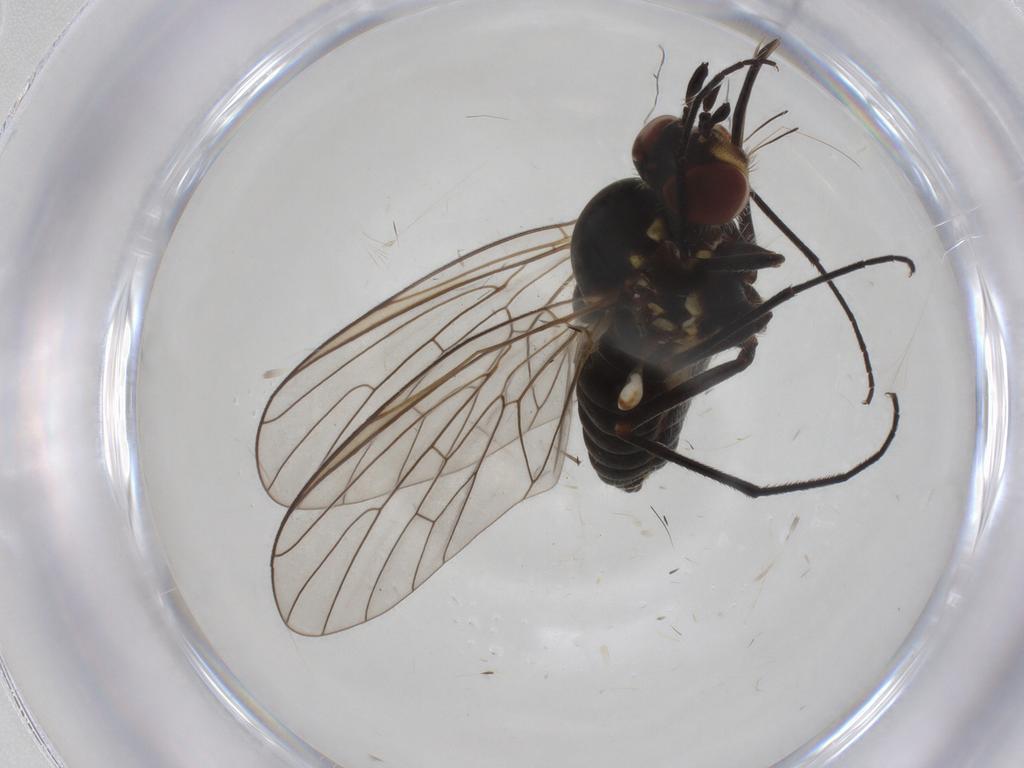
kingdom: Animalia
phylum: Arthropoda
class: Insecta
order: Diptera
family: Bombyliidae
